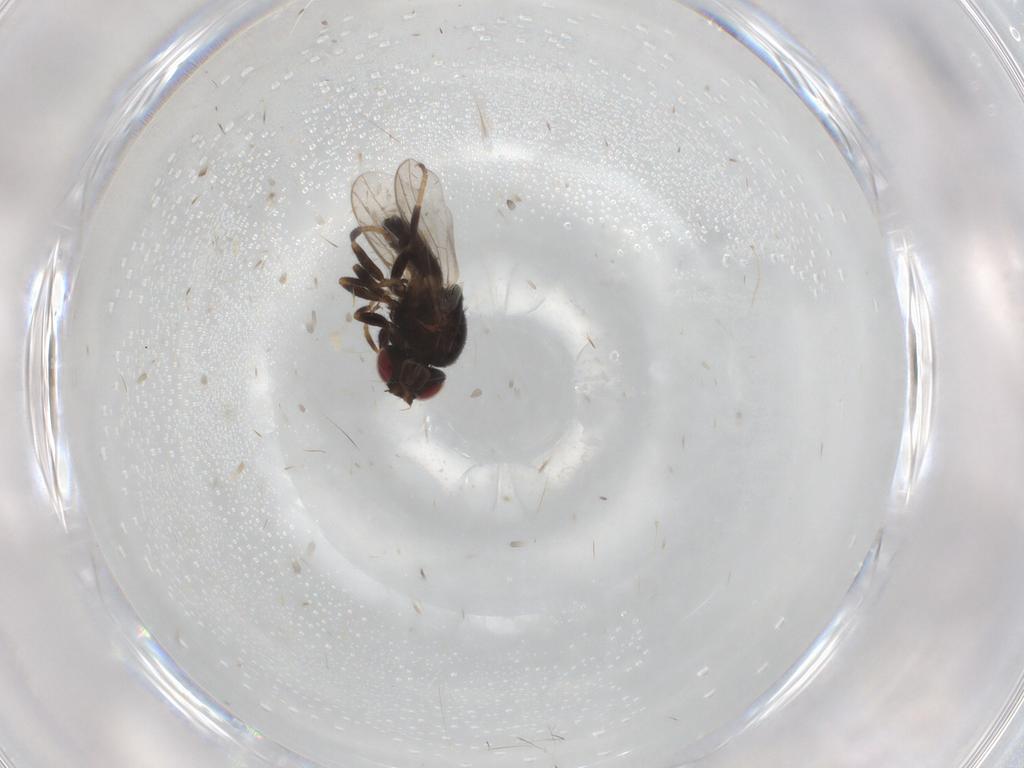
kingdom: Animalia
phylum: Arthropoda
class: Insecta
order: Diptera
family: Chloropidae
